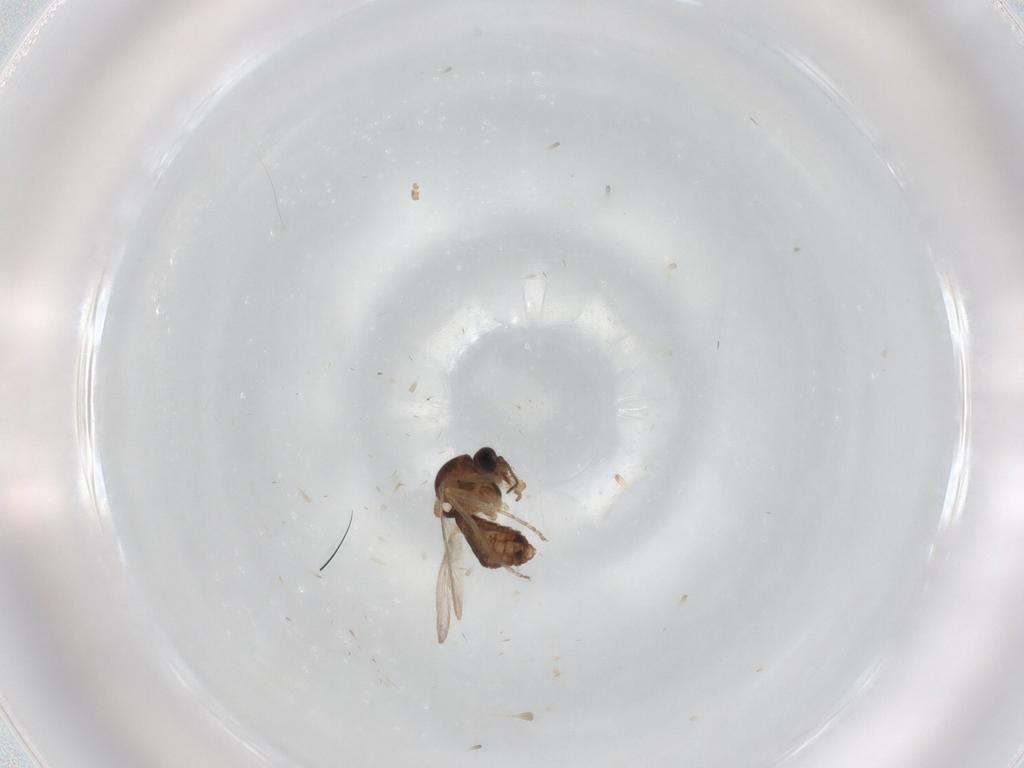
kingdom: Animalia
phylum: Arthropoda
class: Insecta
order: Diptera
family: Ceratopogonidae
